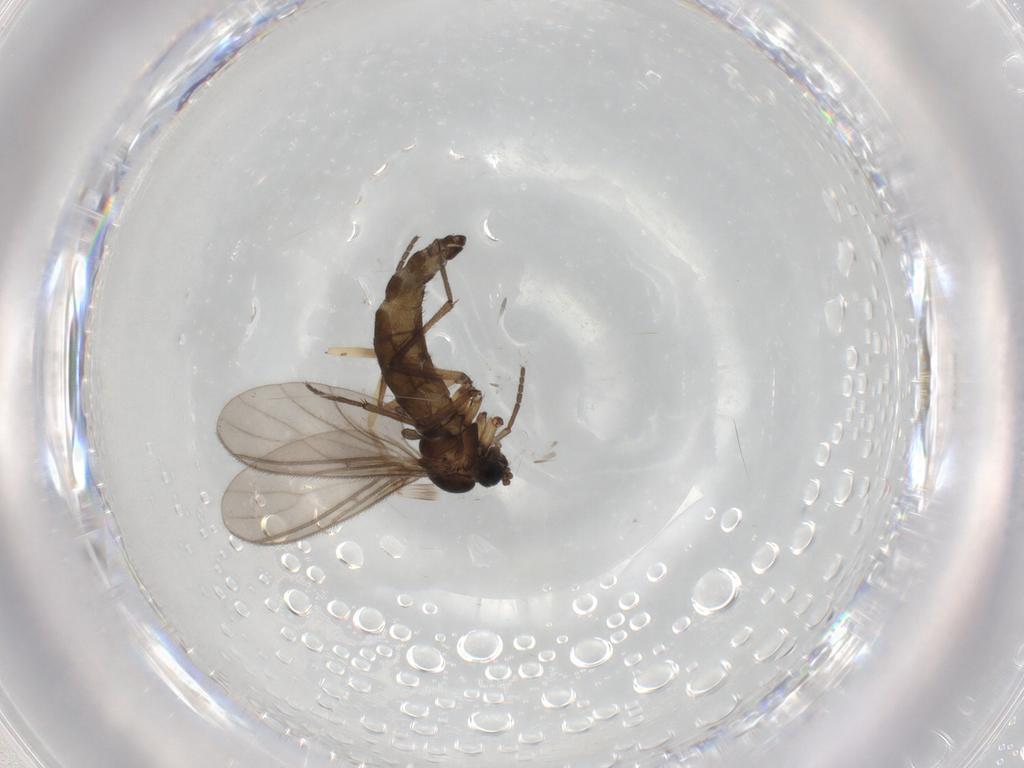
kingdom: Animalia
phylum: Arthropoda
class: Insecta
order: Diptera
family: Sciaridae
